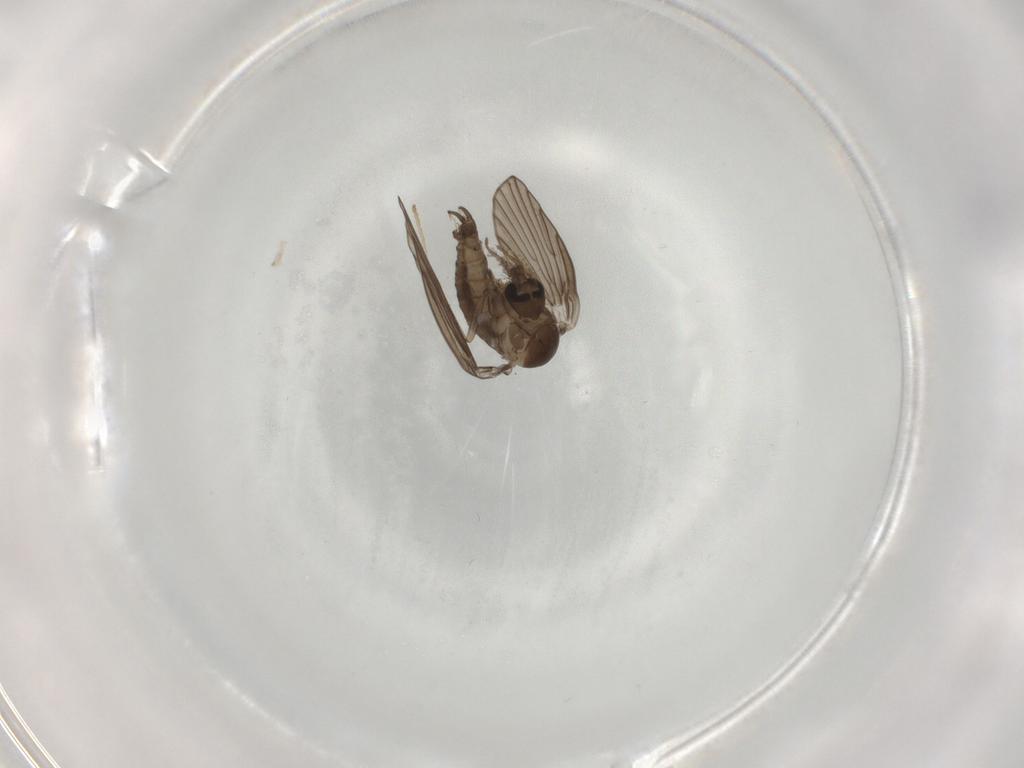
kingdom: Animalia
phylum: Arthropoda
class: Insecta
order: Diptera
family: Psychodidae
